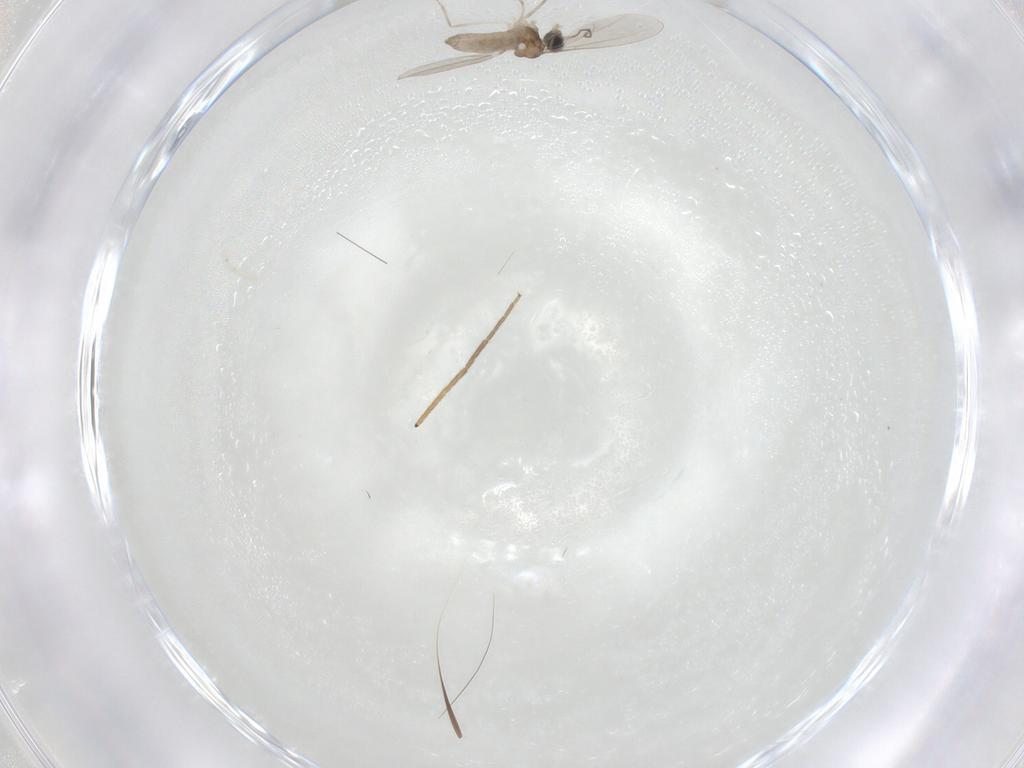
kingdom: Animalia
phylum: Arthropoda
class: Insecta
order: Diptera
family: Cecidomyiidae
